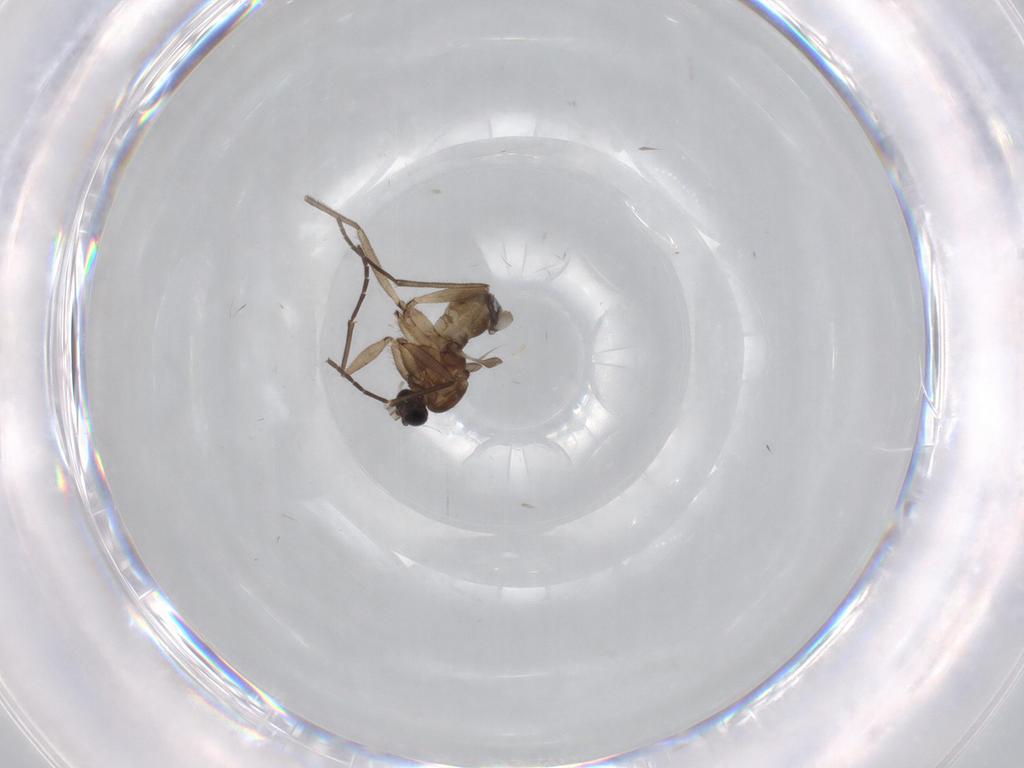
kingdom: Animalia
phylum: Arthropoda
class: Insecta
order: Diptera
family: Sciaridae
